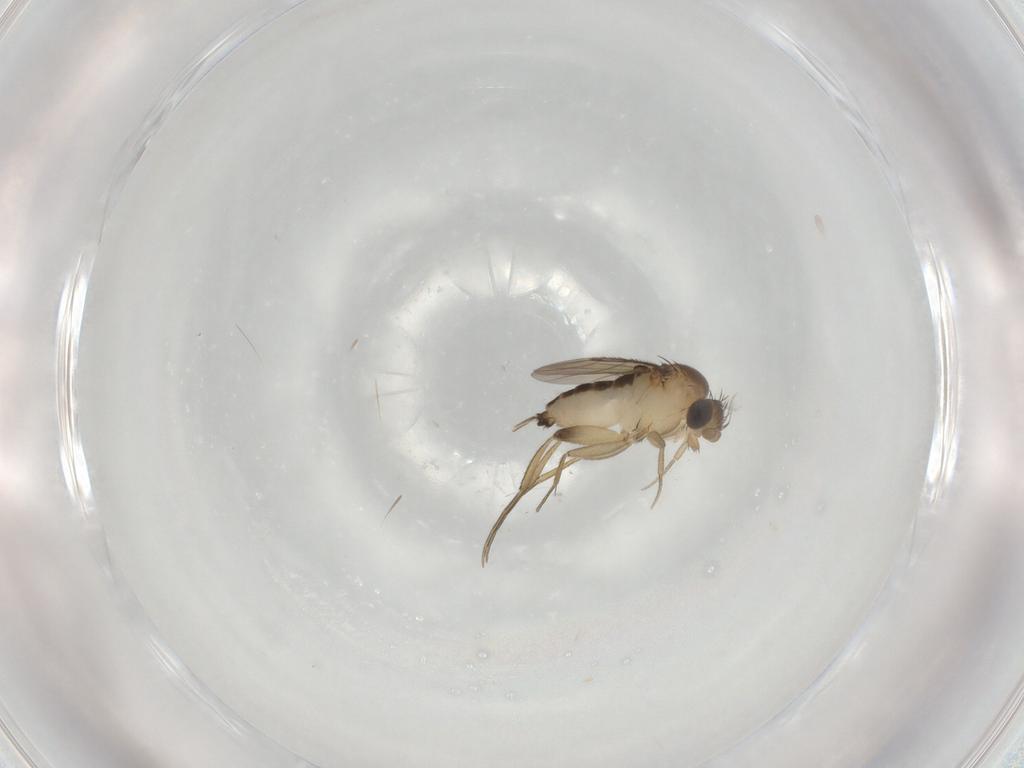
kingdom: Animalia
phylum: Arthropoda
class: Insecta
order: Diptera
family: Phoridae
